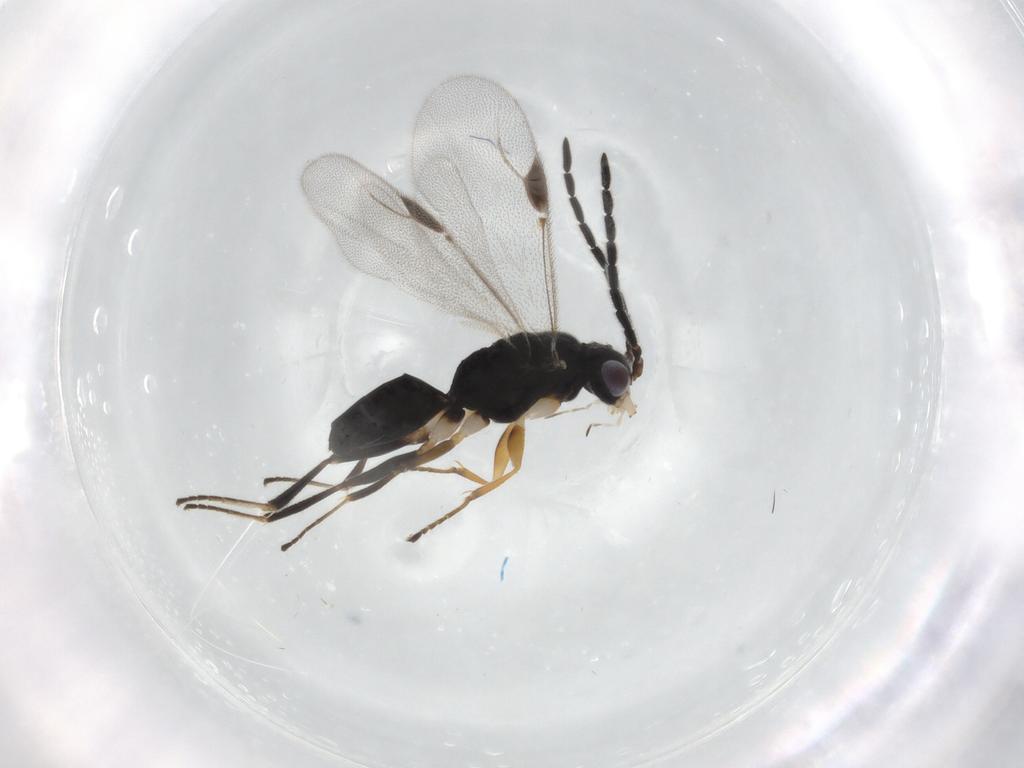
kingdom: Animalia
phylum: Arthropoda
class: Insecta
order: Hymenoptera
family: Dryinidae
